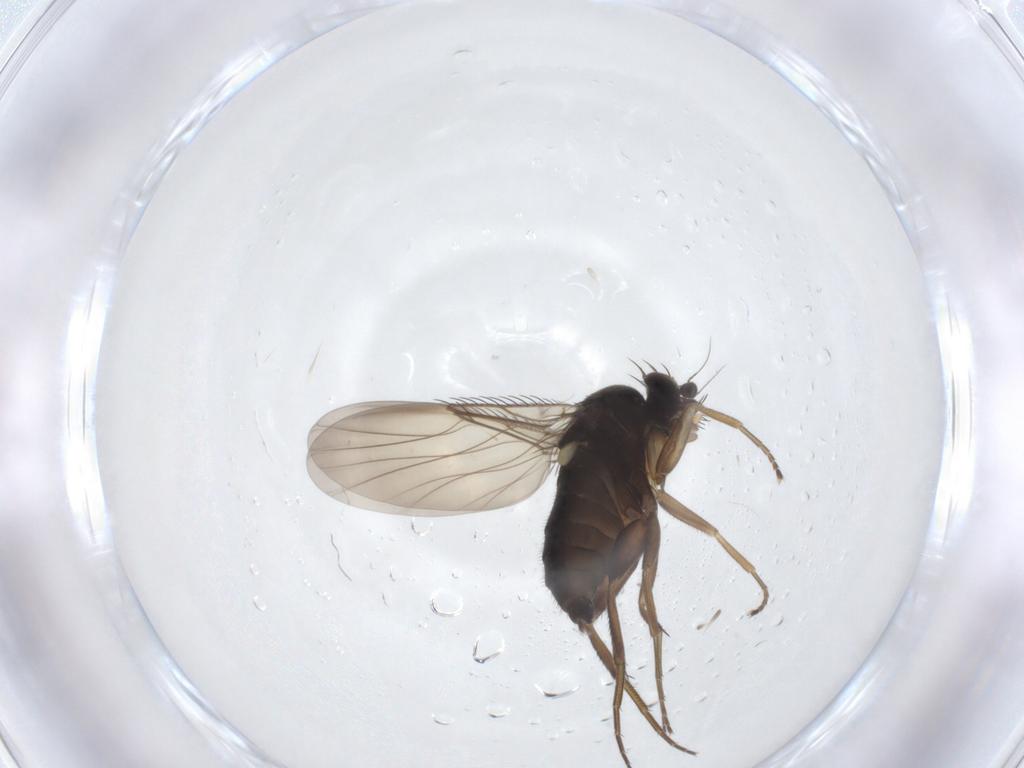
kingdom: Animalia
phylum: Arthropoda
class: Insecta
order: Diptera
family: Phoridae
